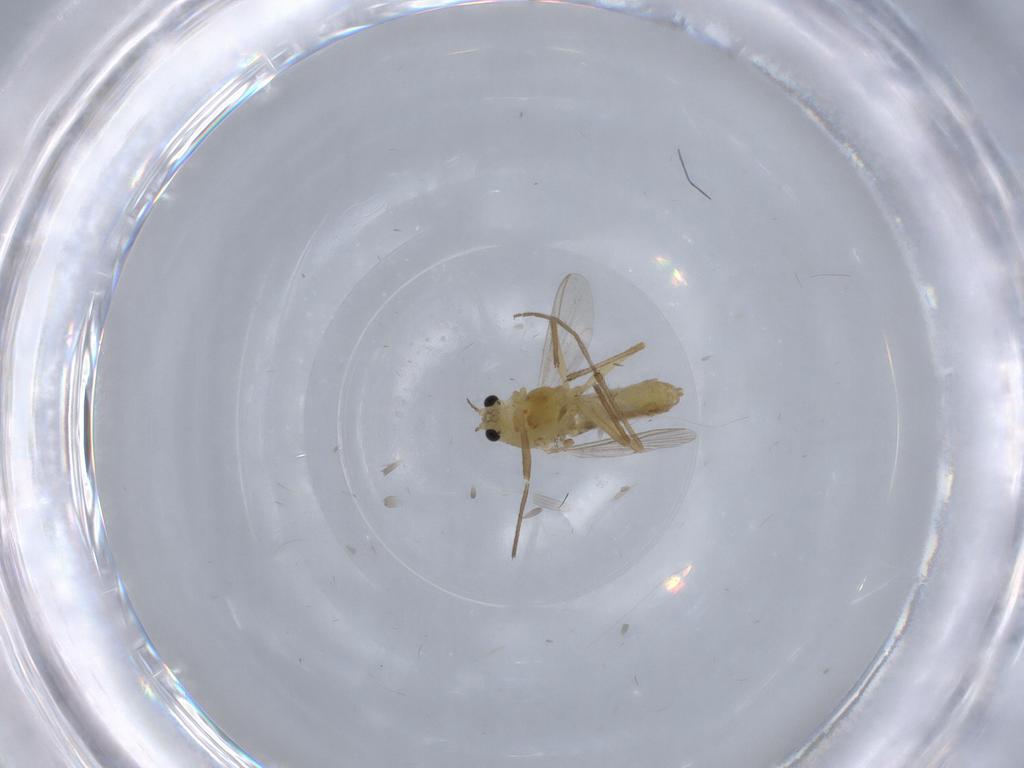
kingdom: Animalia
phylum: Arthropoda
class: Insecta
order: Diptera
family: Chironomidae
